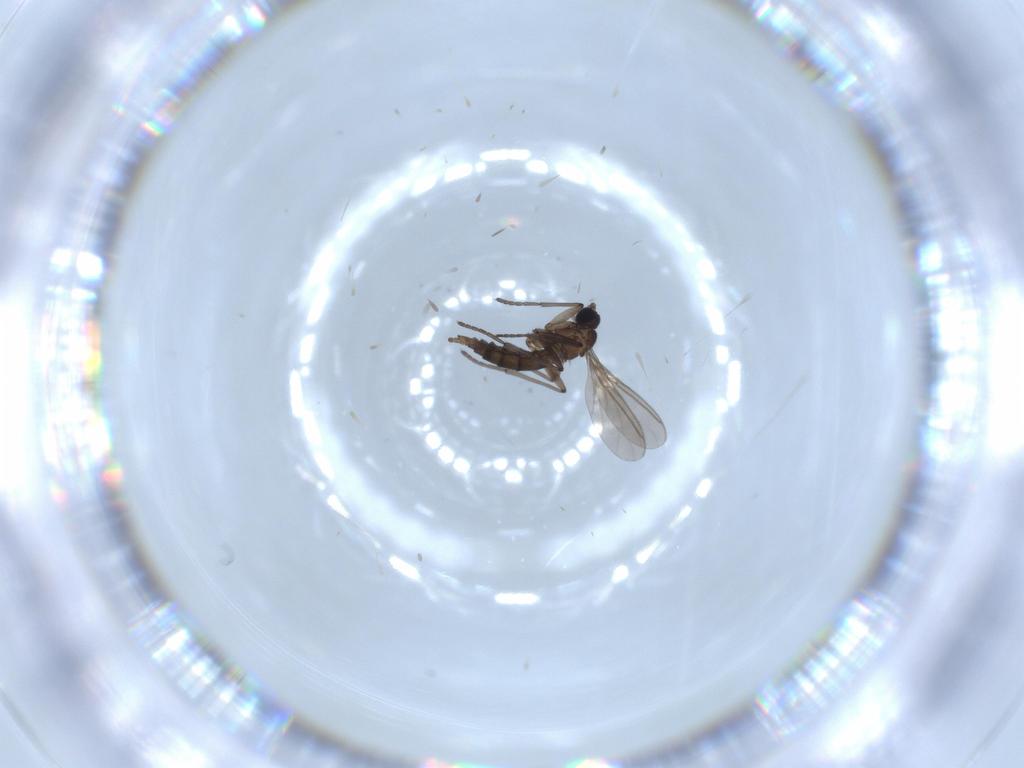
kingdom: Animalia
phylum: Arthropoda
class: Insecta
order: Diptera
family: Sciaridae
